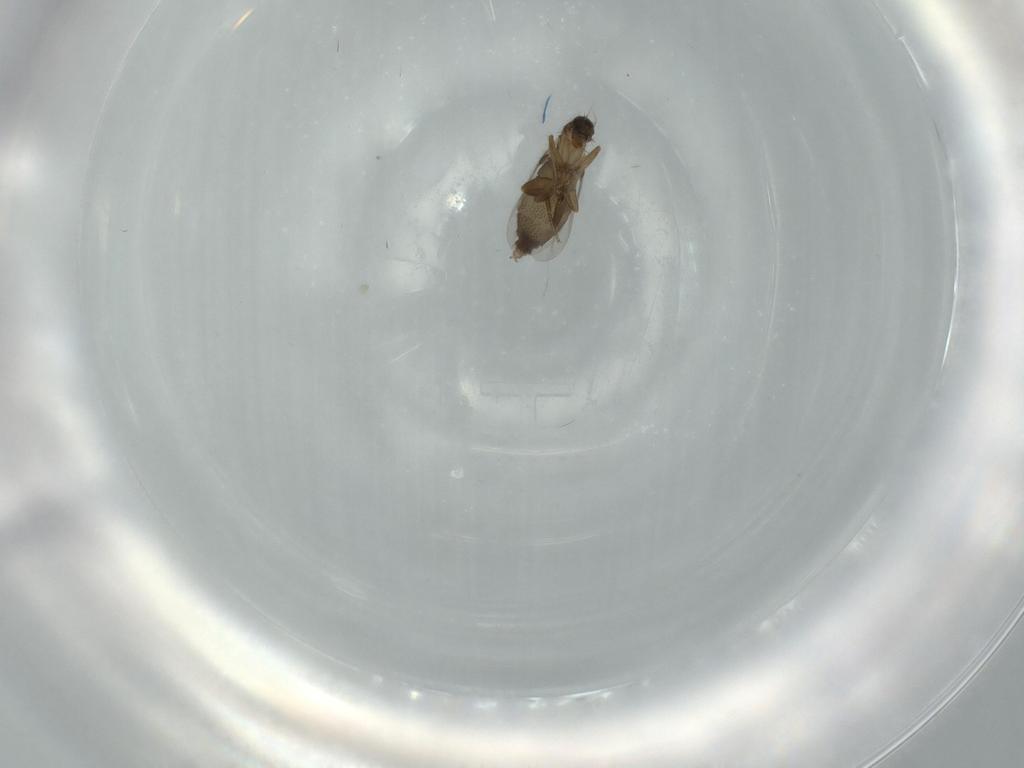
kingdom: Animalia
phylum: Arthropoda
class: Insecta
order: Diptera
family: Phoridae
